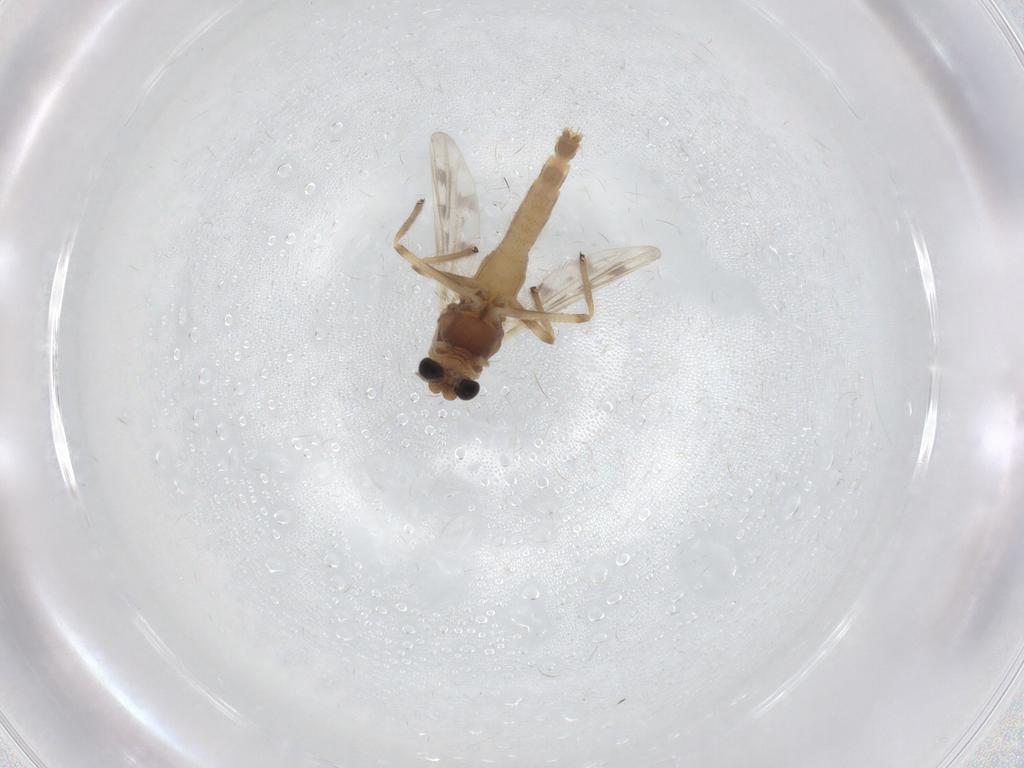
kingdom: Animalia
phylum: Arthropoda
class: Insecta
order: Diptera
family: Chironomidae
